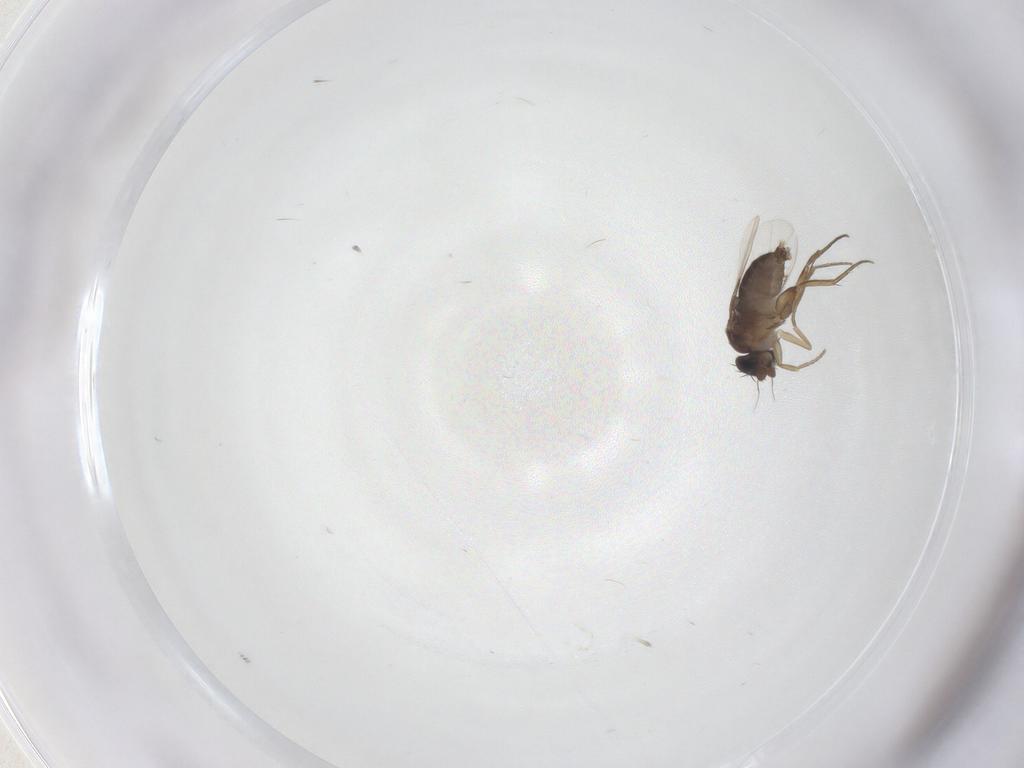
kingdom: Animalia
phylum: Arthropoda
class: Insecta
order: Diptera
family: Phoridae
